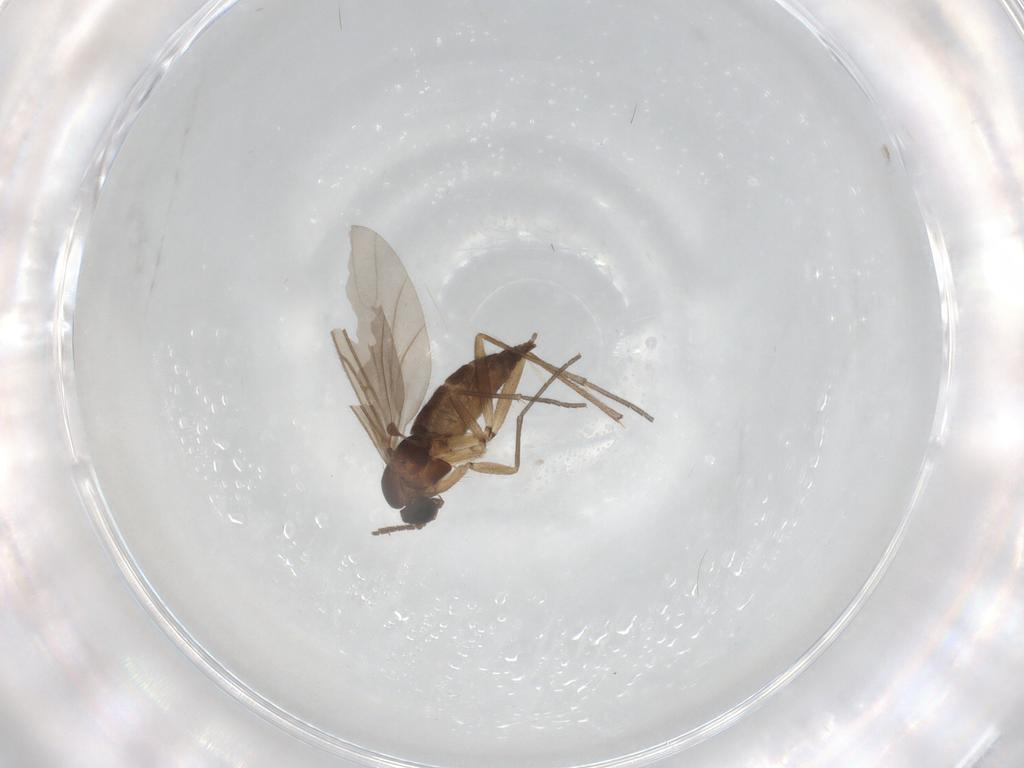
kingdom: Animalia
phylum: Arthropoda
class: Insecta
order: Diptera
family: Sciaridae
